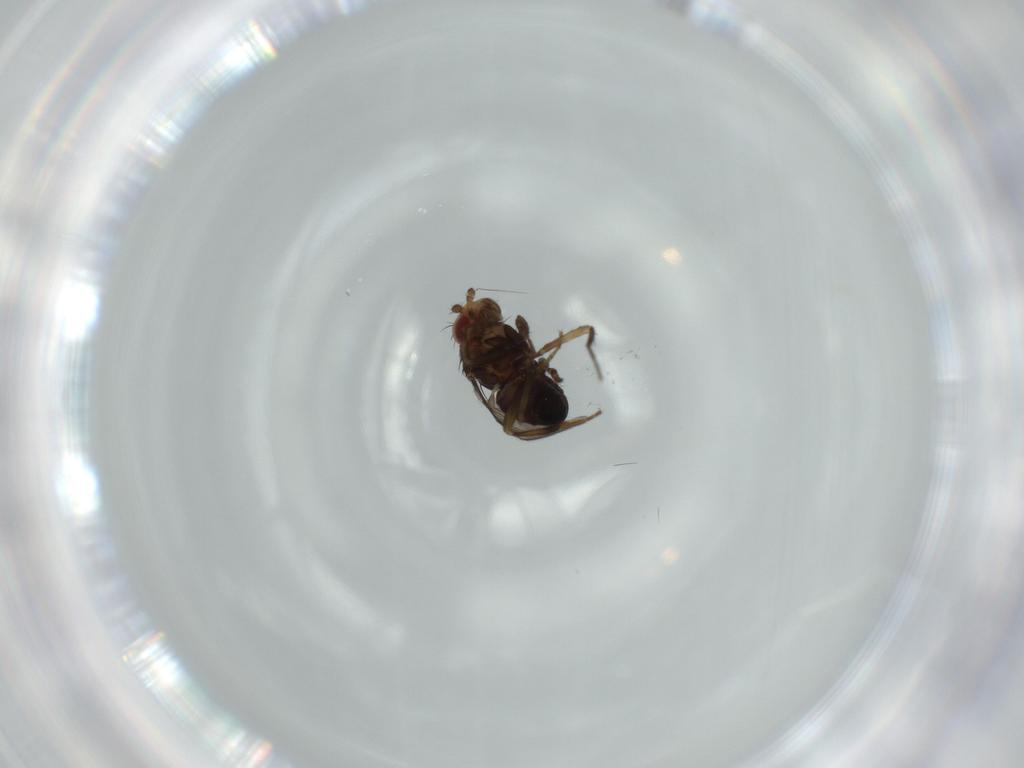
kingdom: Animalia
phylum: Arthropoda
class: Insecta
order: Diptera
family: Sphaeroceridae
